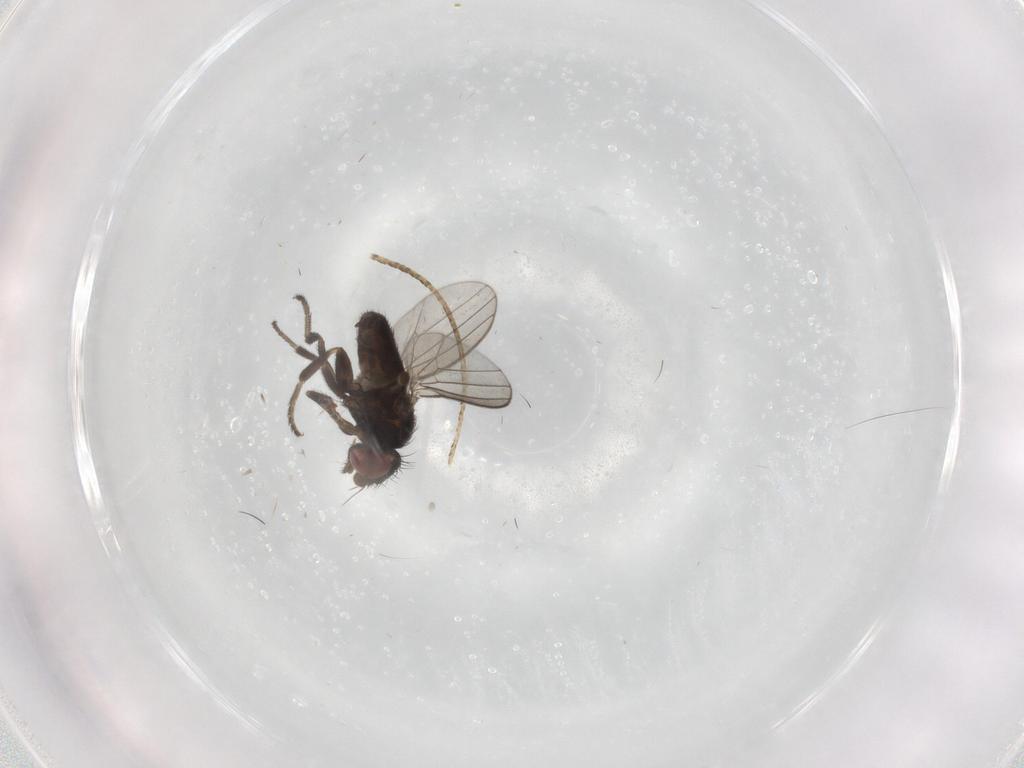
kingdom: Animalia
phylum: Arthropoda
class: Insecta
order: Diptera
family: Milichiidae
